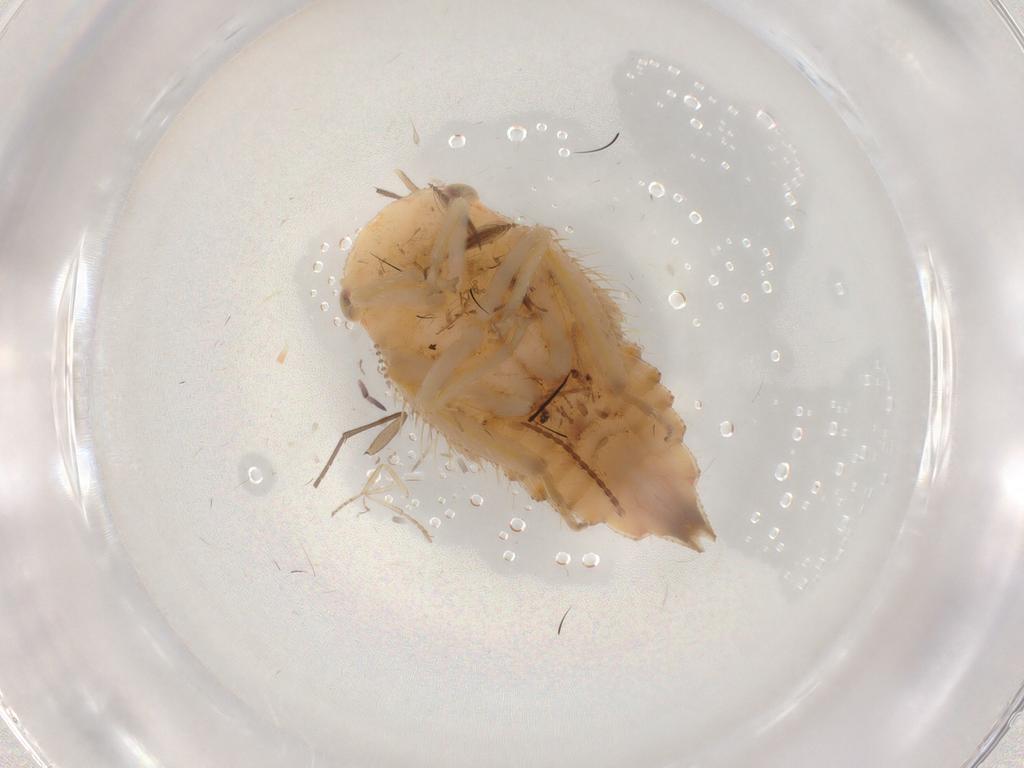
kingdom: Animalia
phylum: Arthropoda
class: Insecta
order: Hemiptera
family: Cicadellidae
